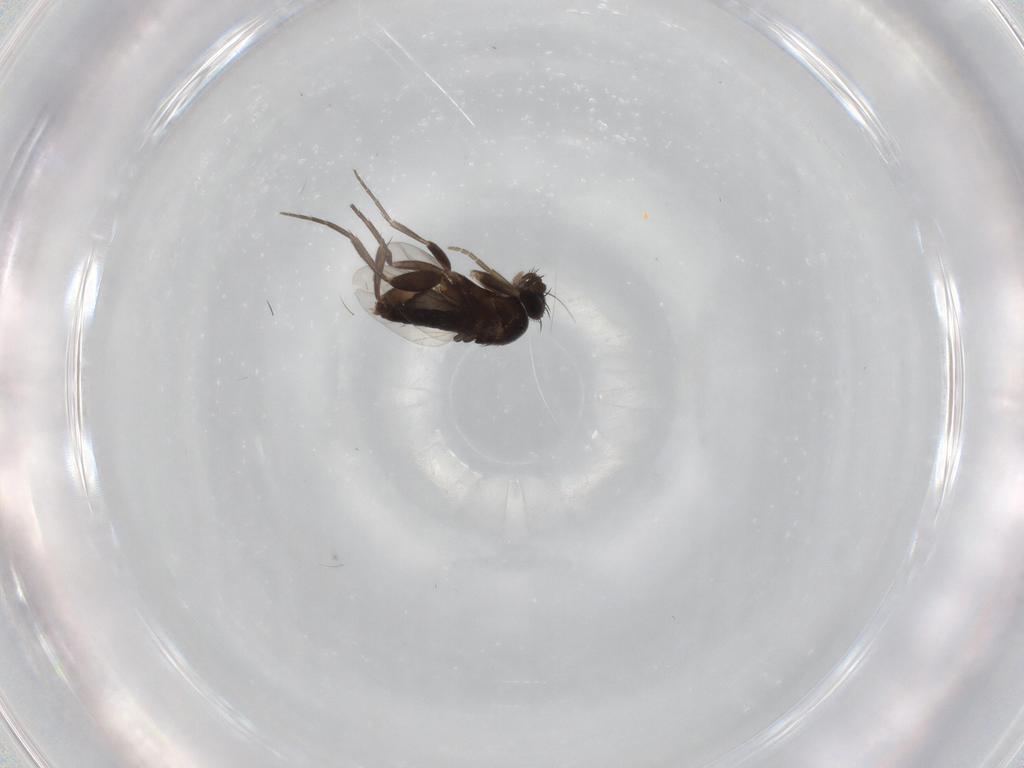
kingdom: Animalia
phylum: Arthropoda
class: Insecta
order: Diptera
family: Phoridae
